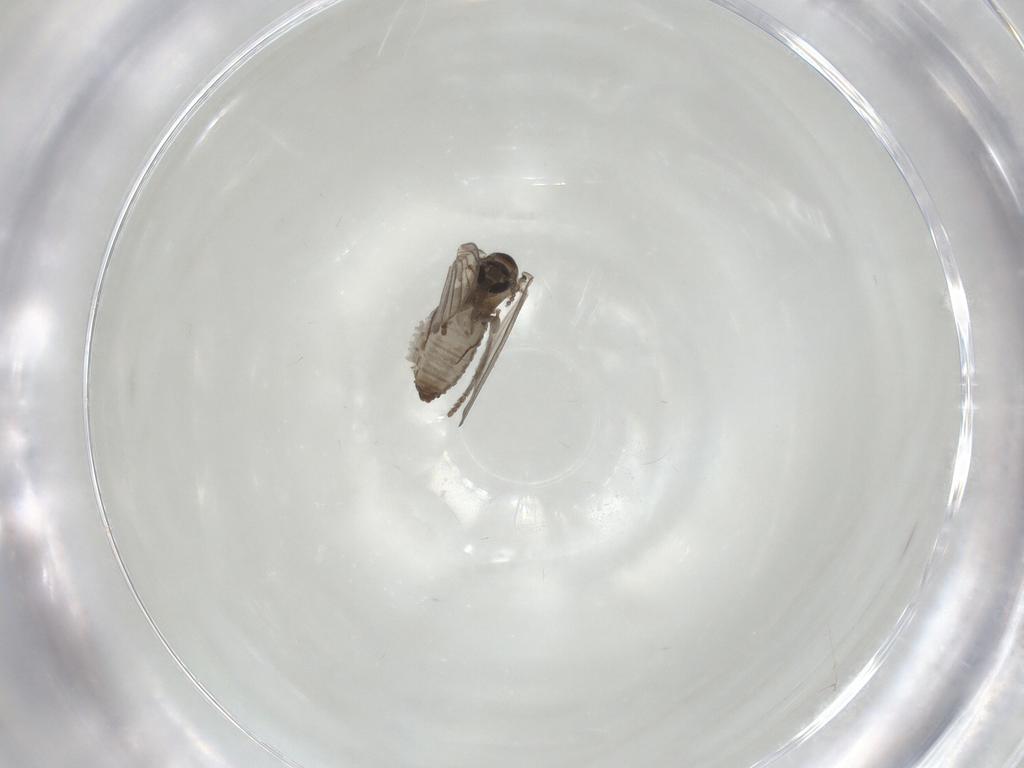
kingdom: Animalia
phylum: Arthropoda
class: Insecta
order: Diptera
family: Psychodidae
